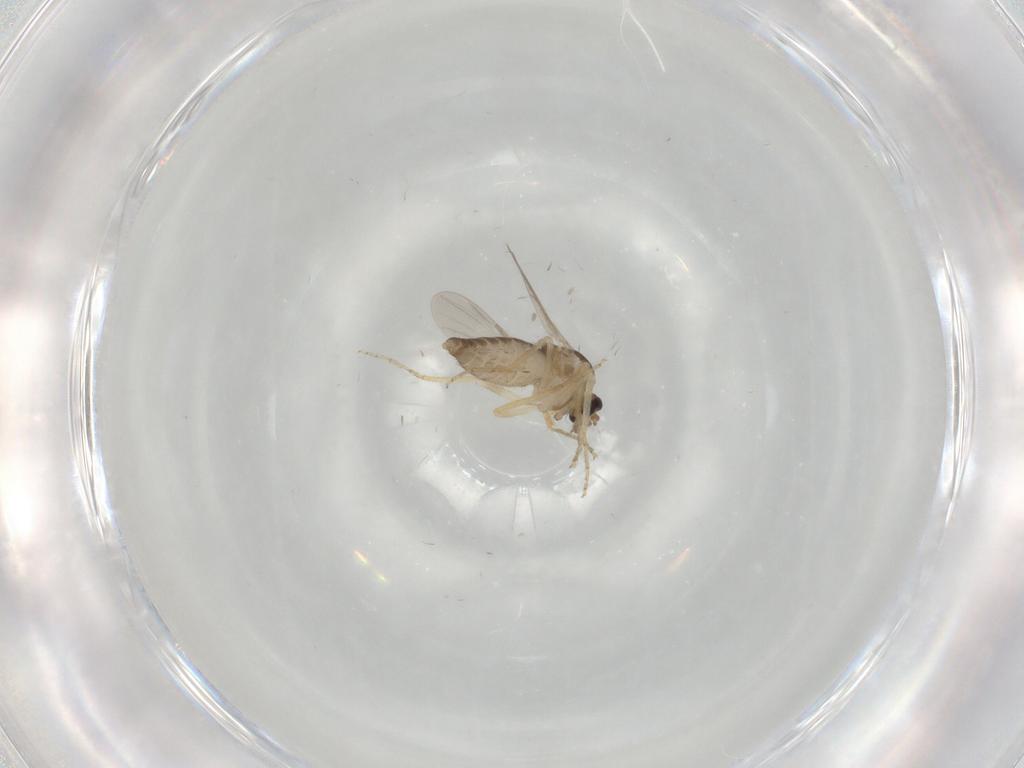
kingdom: Animalia
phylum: Arthropoda
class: Insecta
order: Diptera
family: Ceratopogonidae
